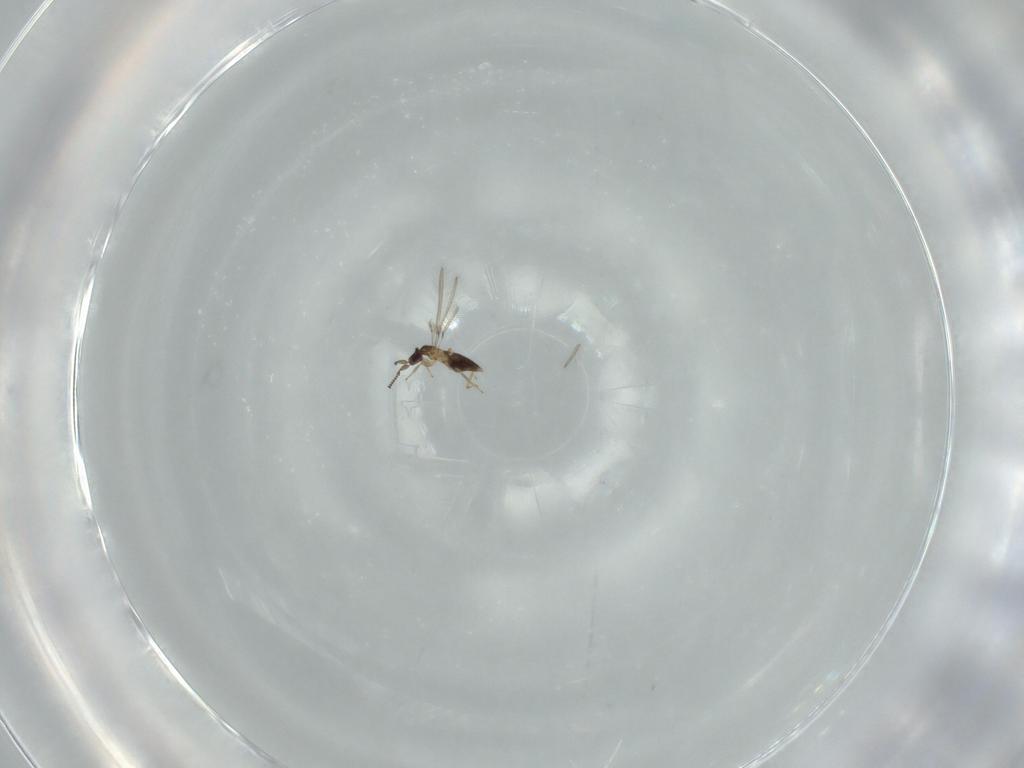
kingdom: Animalia
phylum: Arthropoda
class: Insecta
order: Hymenoptera
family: Mymaridae
